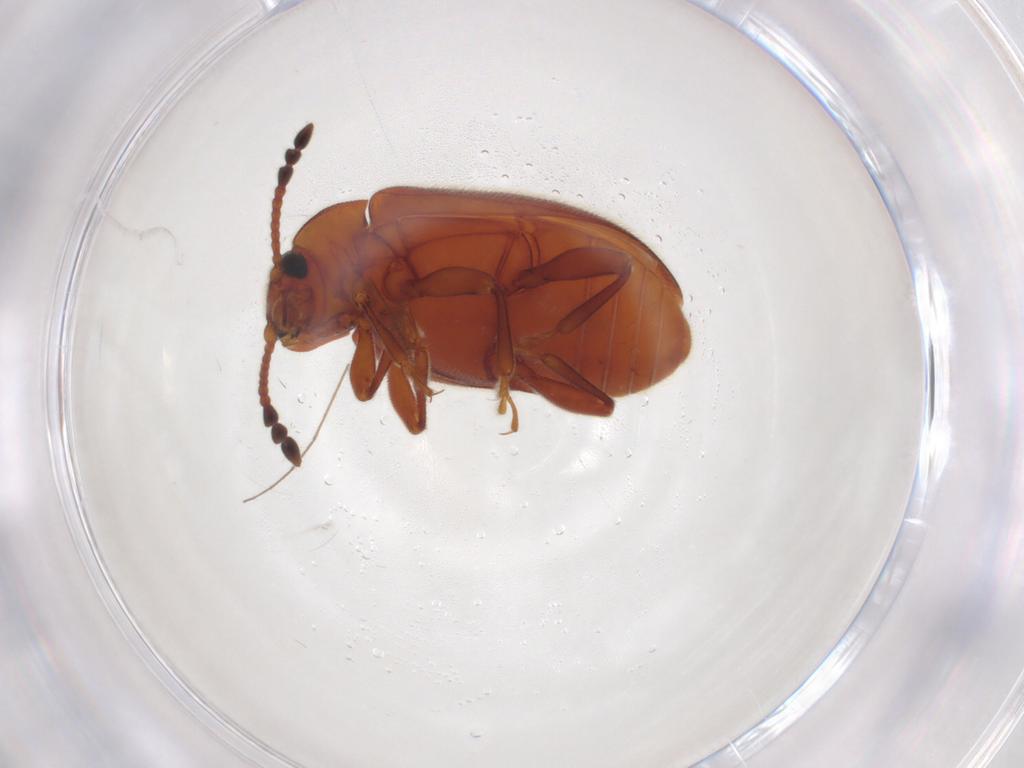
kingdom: Animalia
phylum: Arthropoda
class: Insecta
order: Coleoptera
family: Endomychidae
